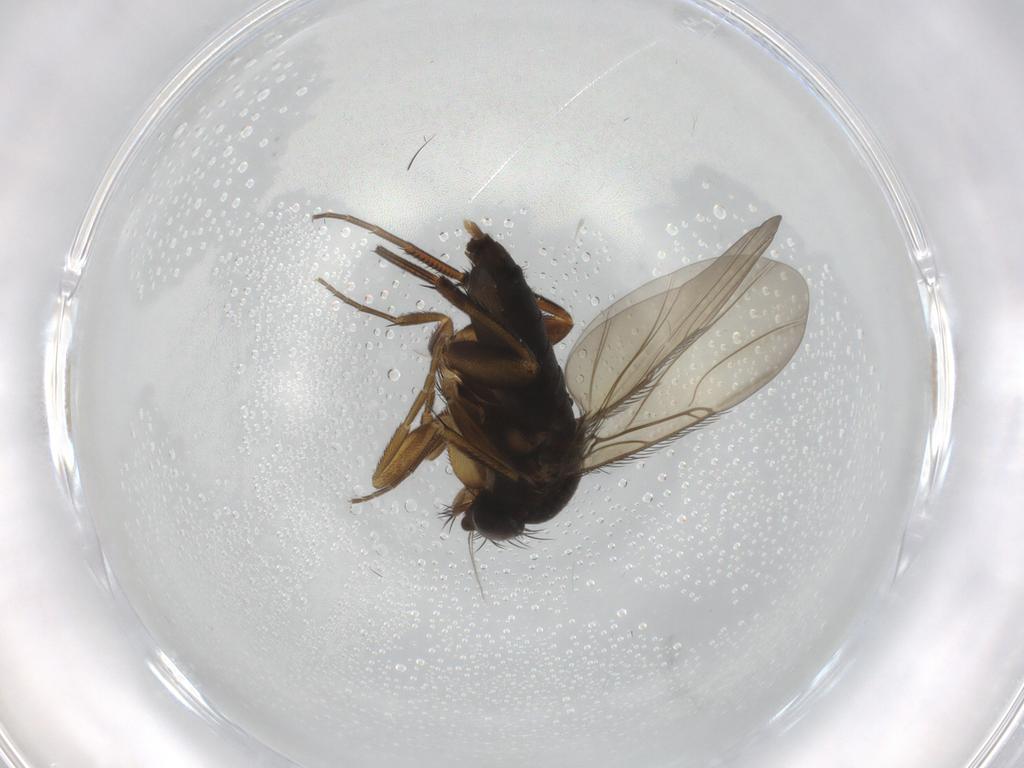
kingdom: Animalia
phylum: Arthropoda
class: Insecta
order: Diptera
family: Phoridae
